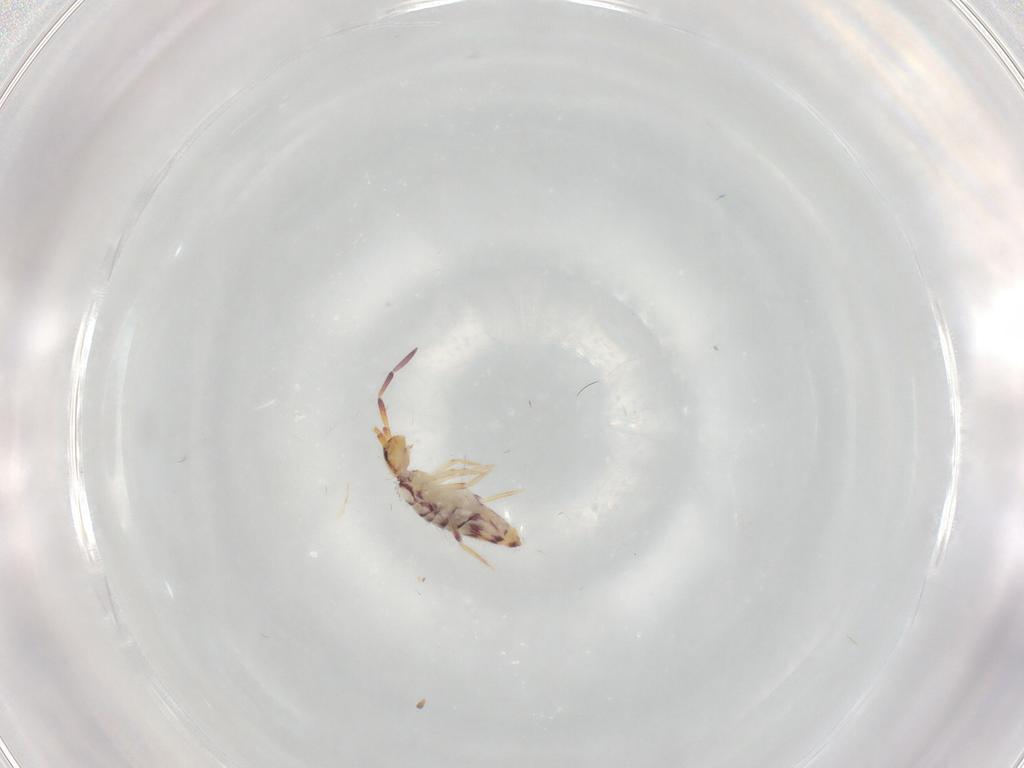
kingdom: Animalia
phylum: Arthropoda
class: Collembola
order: Entomobryomorpha
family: Entomobryidae
